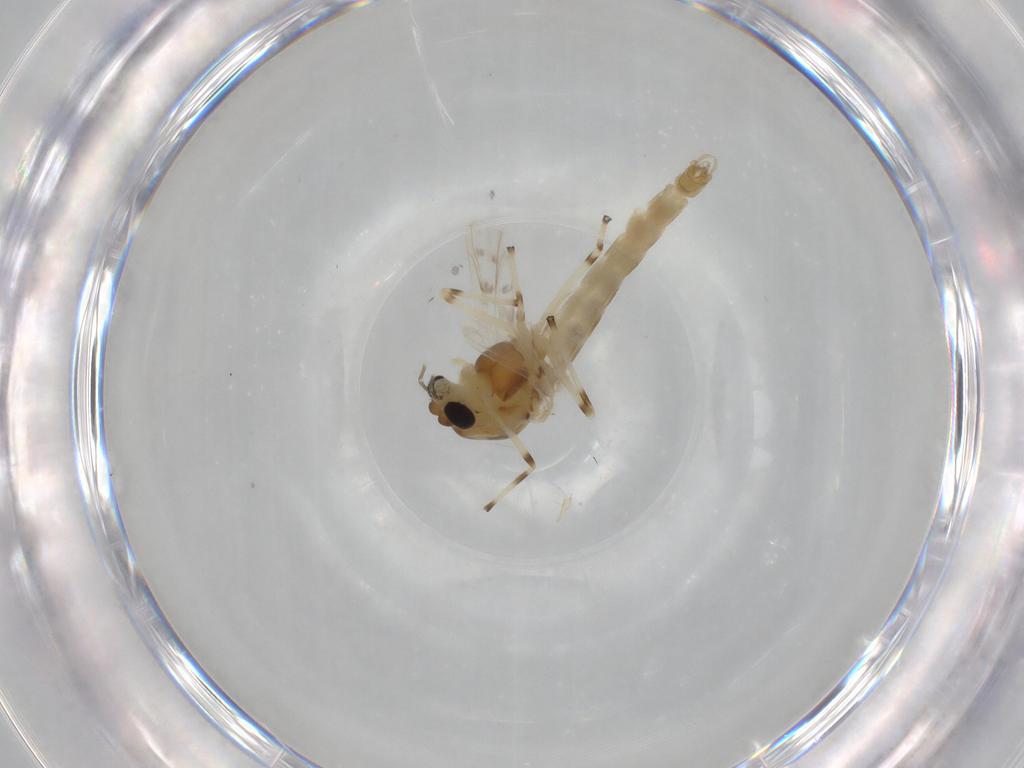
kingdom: Animalia
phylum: Arthropoda
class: Insecta
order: Diptera
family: Chironomidae
